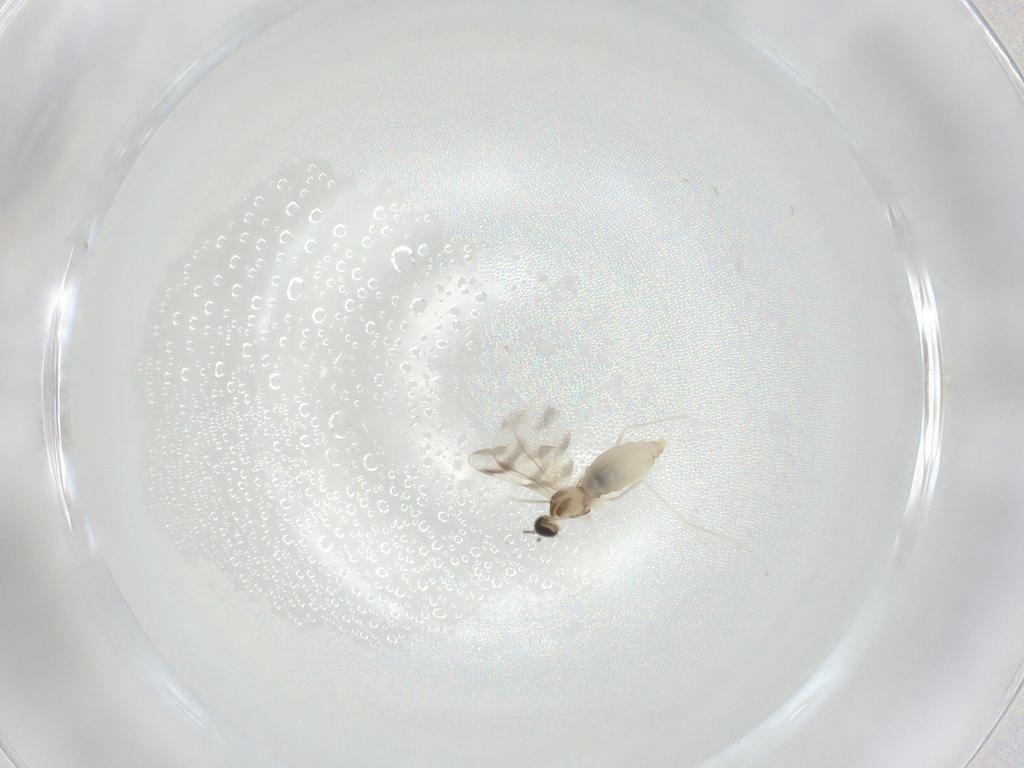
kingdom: Animalia
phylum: Arthropoda
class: Insecta
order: Diptera
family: Cecidomyiidae
